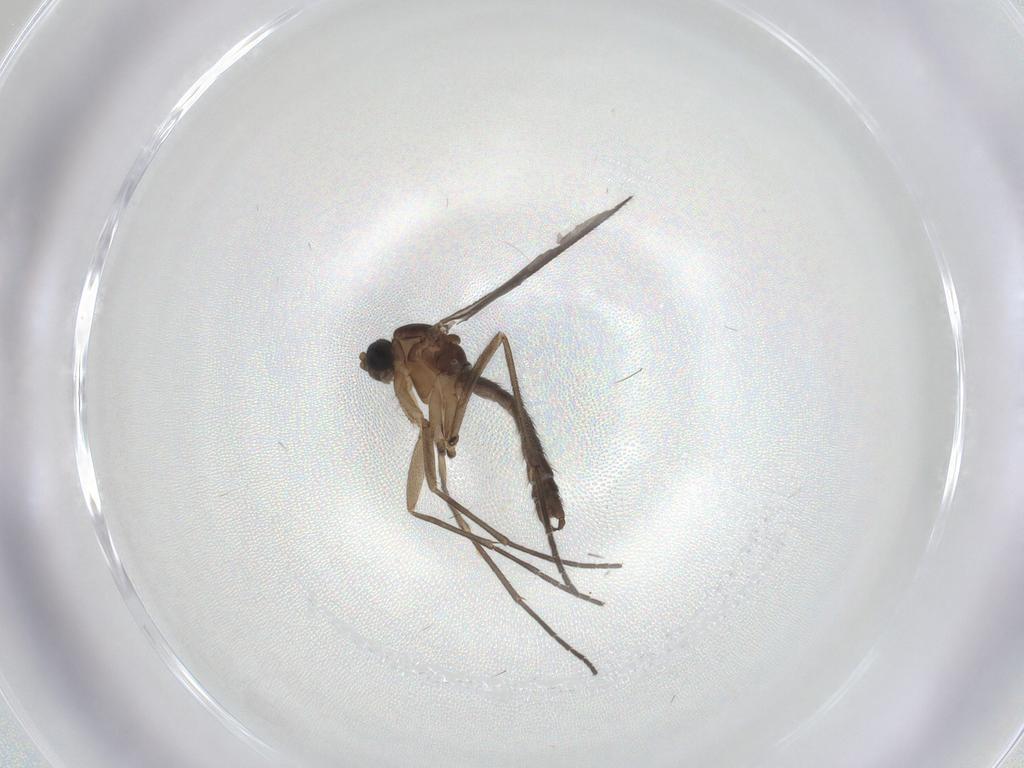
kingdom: Animalia
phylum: Arthropoda
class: Insecta
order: Diptera
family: Sciaridae
